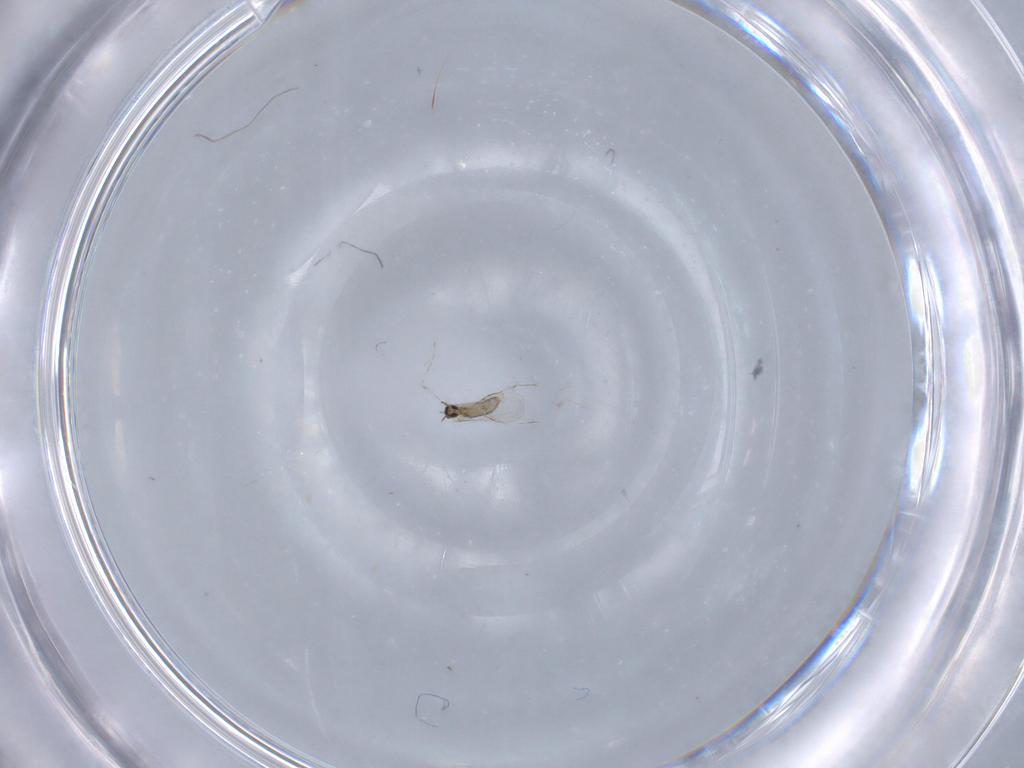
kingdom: Animalia
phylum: Arthropoda
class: Insecta
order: Diptera
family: Cecidomyiidae
